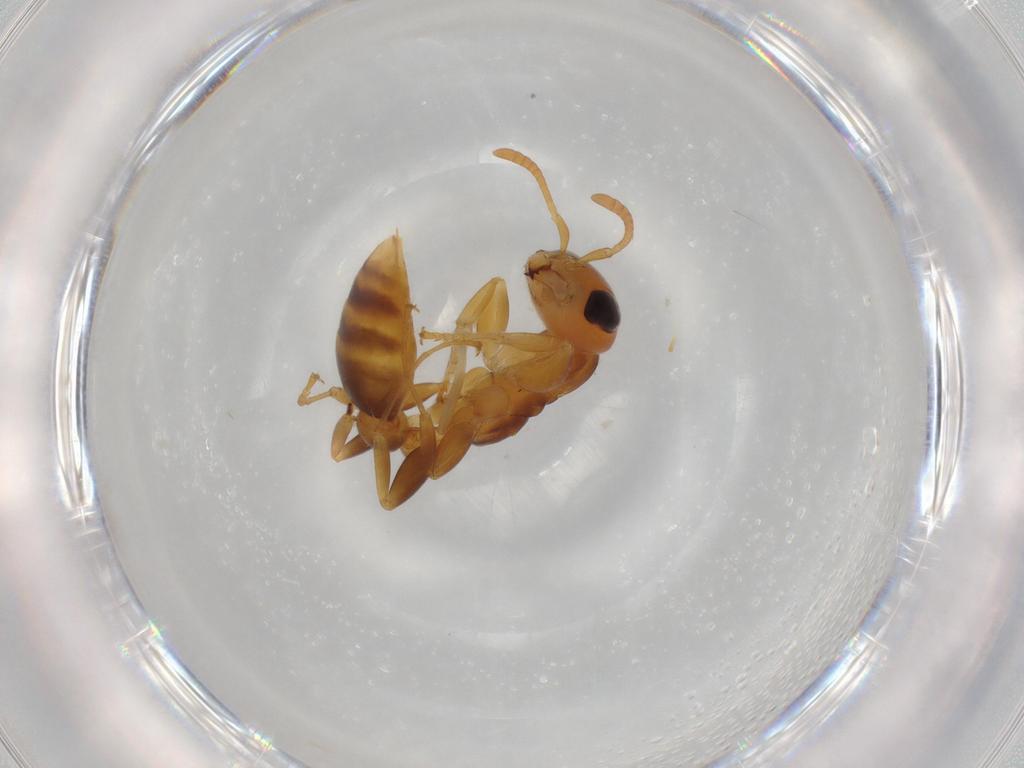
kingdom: Animalia
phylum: Arthropoda
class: Insecta
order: Hymenoptera
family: Formicidae
